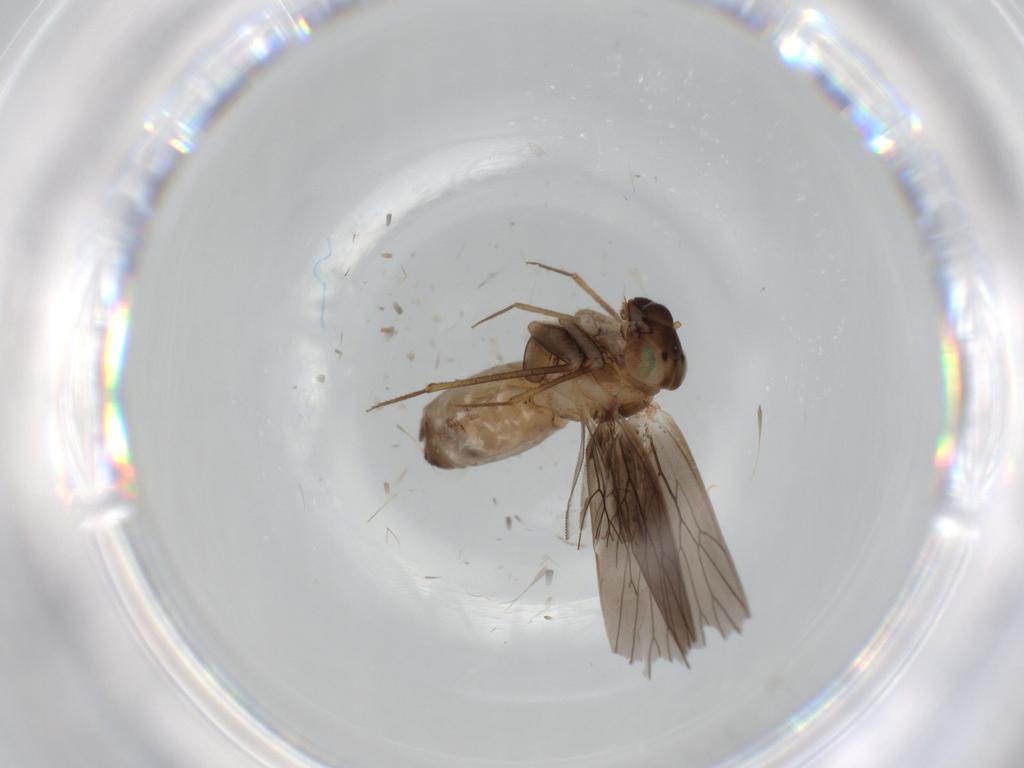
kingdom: Animalia
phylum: Arthropoda
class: Insecta
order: Psocodea
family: Lepidopsocidae
